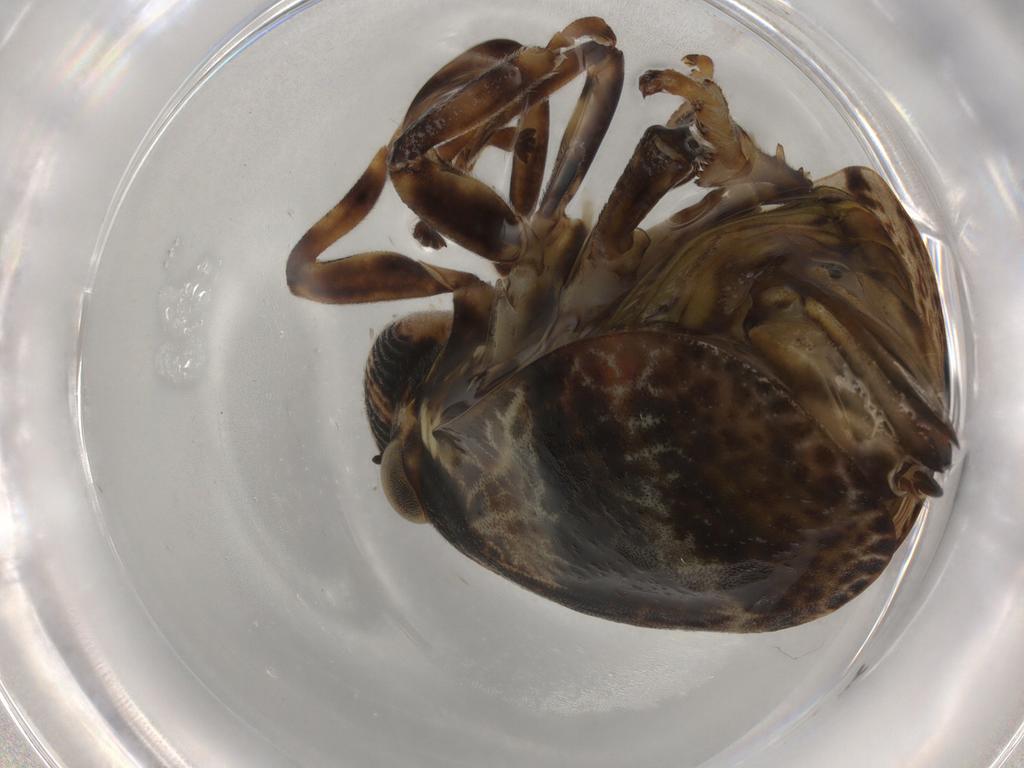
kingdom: Animalia
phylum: Arthropoda
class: Insecta
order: Hemiptera
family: Aphrophoridae
